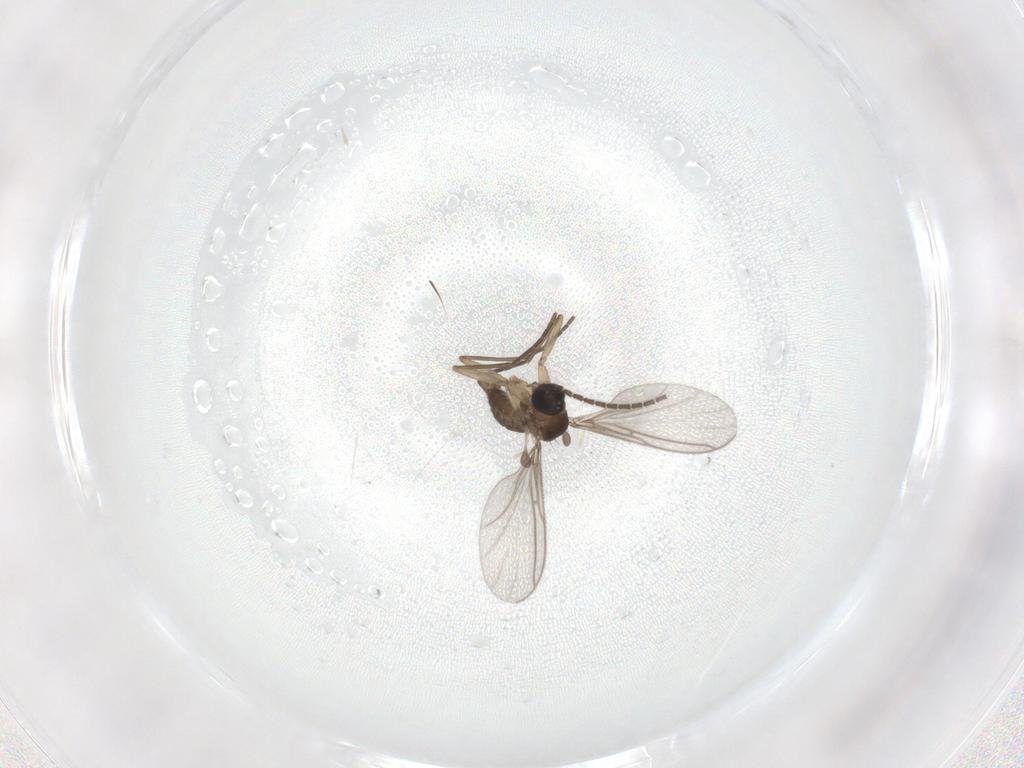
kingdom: Animalia
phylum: Arthropoda
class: Insecta
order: Diptera
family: Sciaridae
